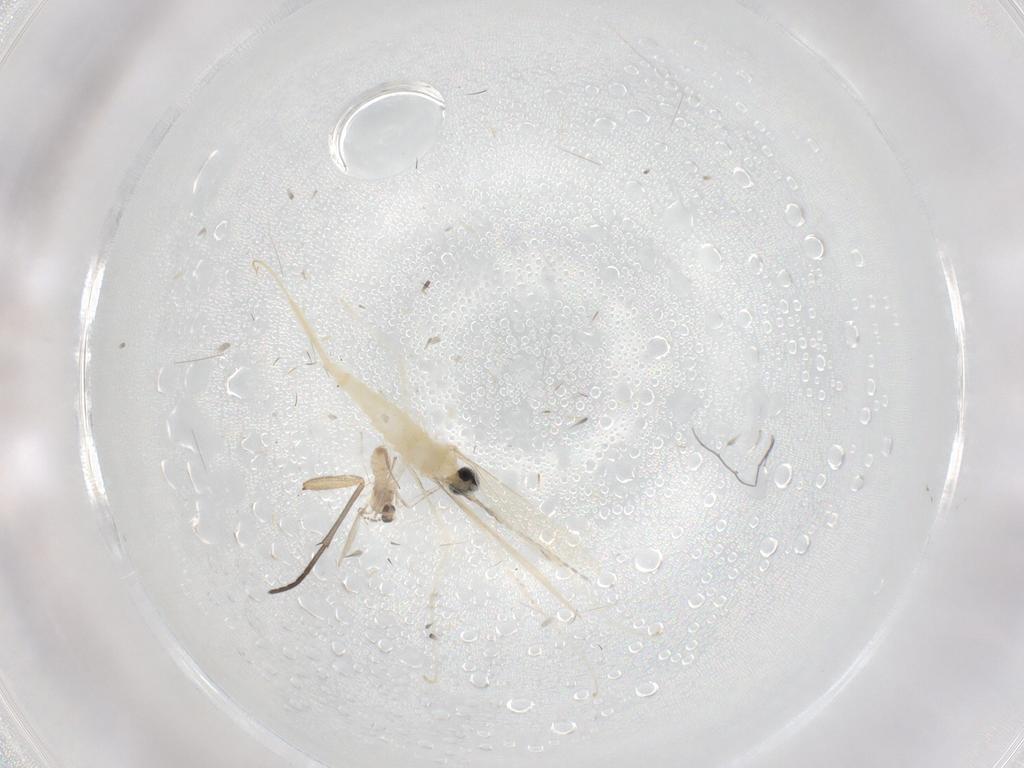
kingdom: Animalia
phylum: Arthropoda
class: Insecta
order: Diptera
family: Cecidomyiidae
